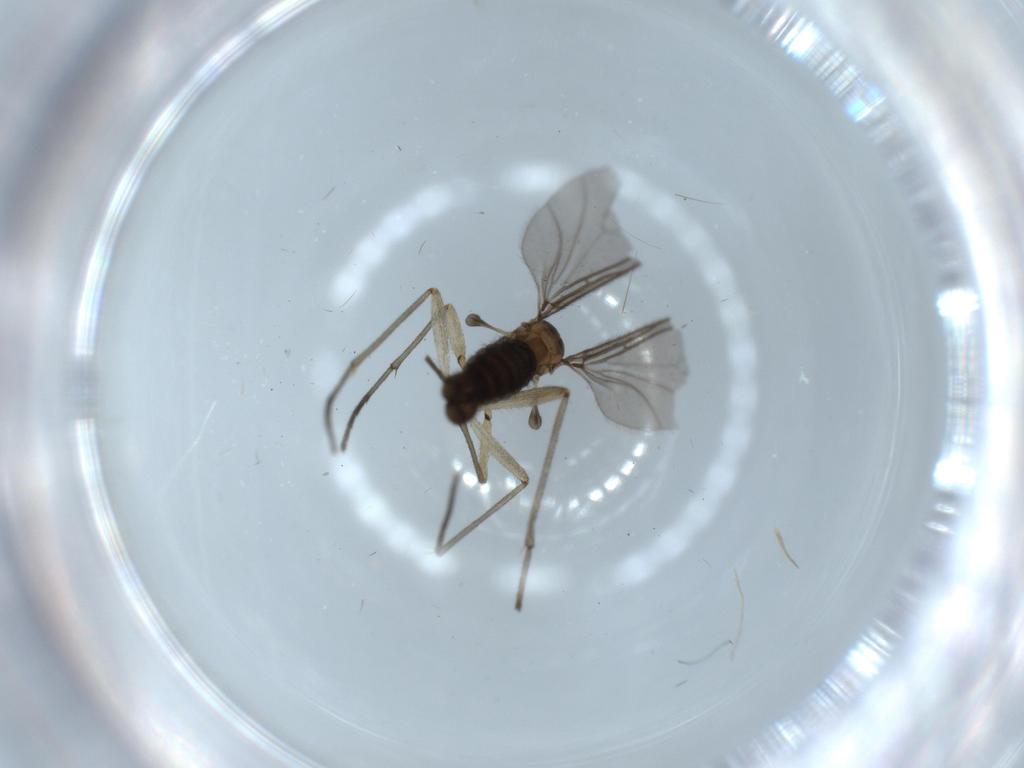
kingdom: Animalia
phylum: Arthropoda
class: Insecta
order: Diptera
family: Sciaridae
